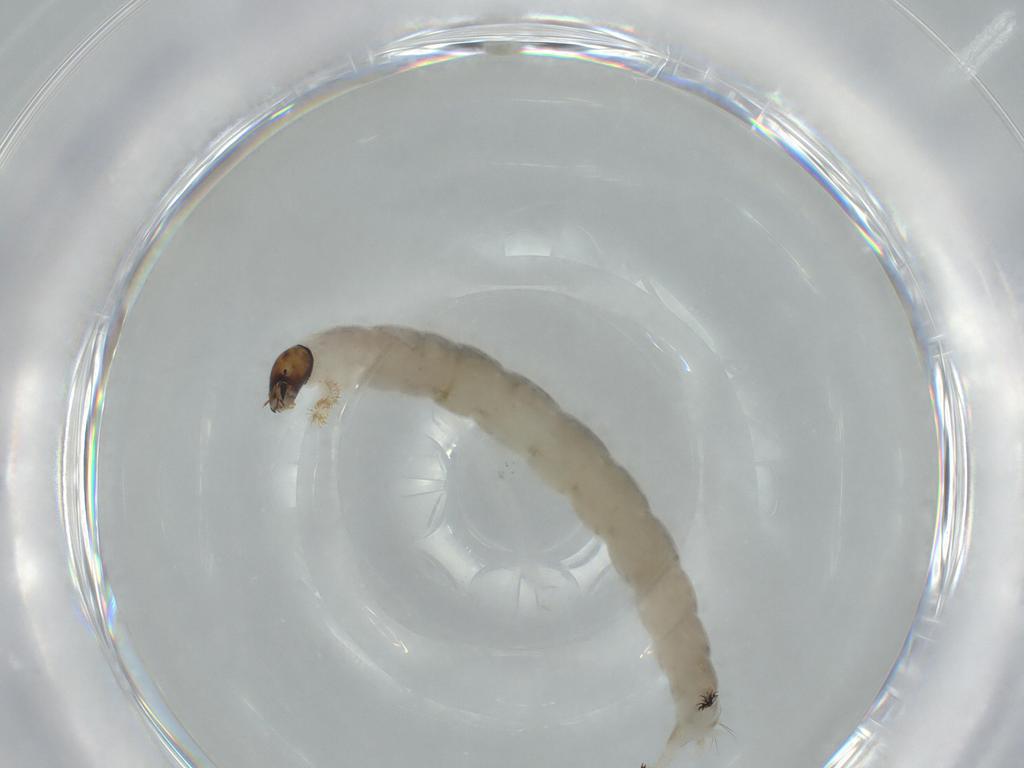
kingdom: Animalia
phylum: Arthropoda
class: Insecta
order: Diptera
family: Chironomidae
